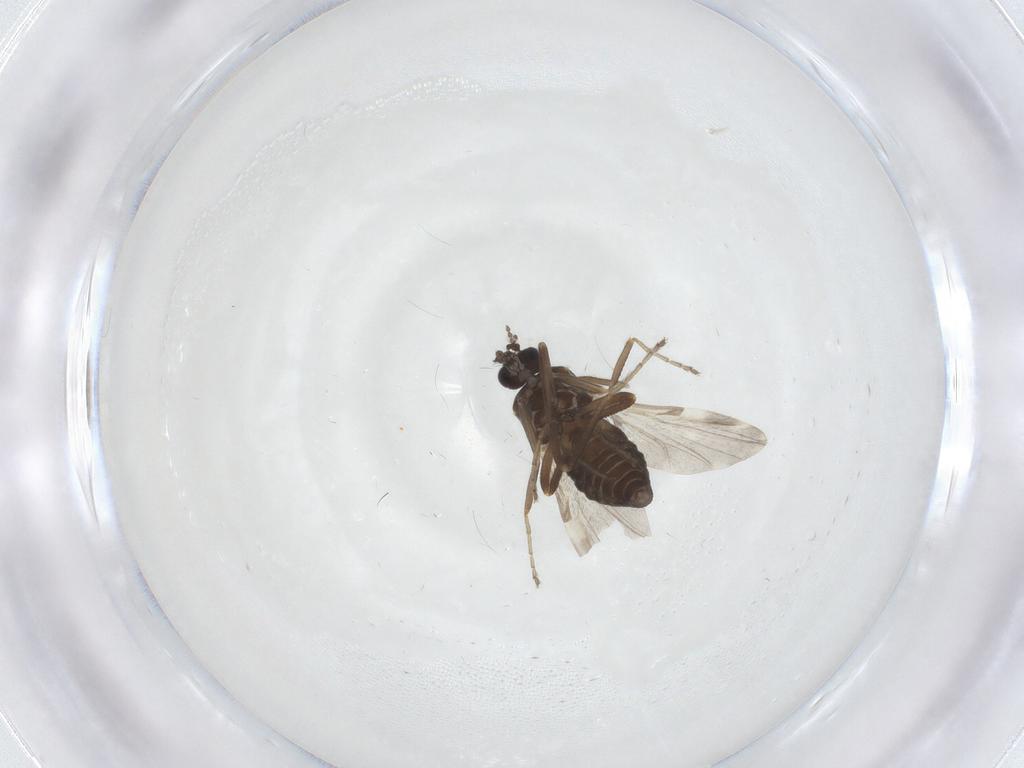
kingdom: Animalia
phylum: Arthropoda
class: Insecta
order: Diptera
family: Ceratopogonidae
